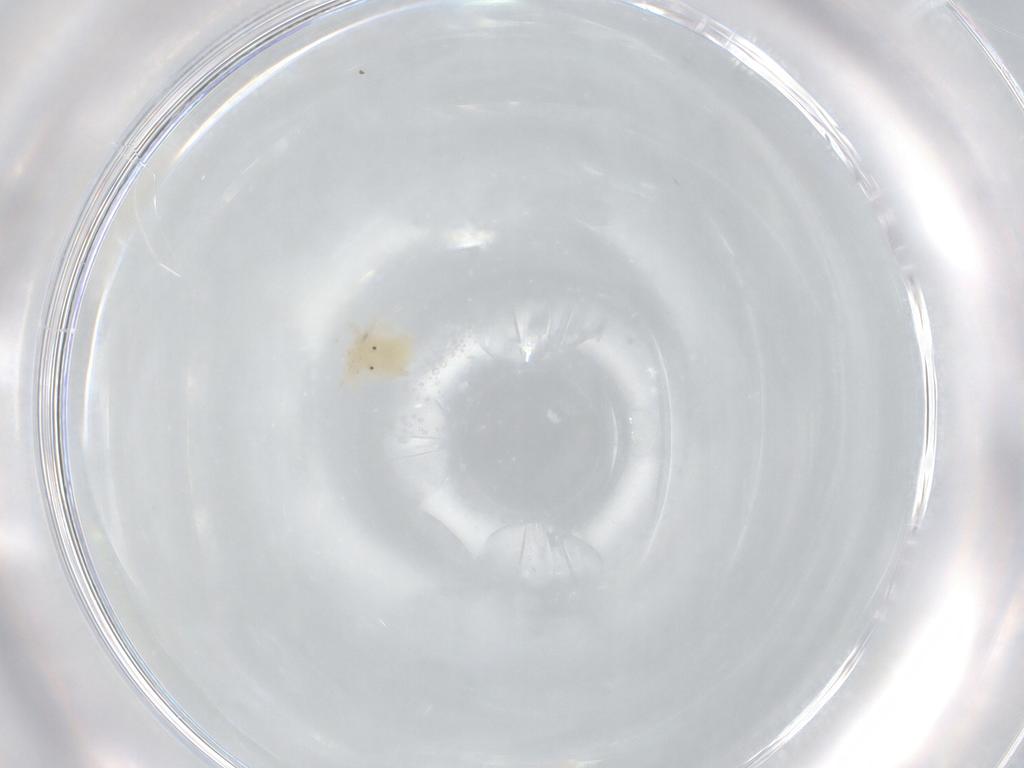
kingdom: Animalia
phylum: Arthropoda
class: Arachnida
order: Trombidiformes
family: Eupodidae
